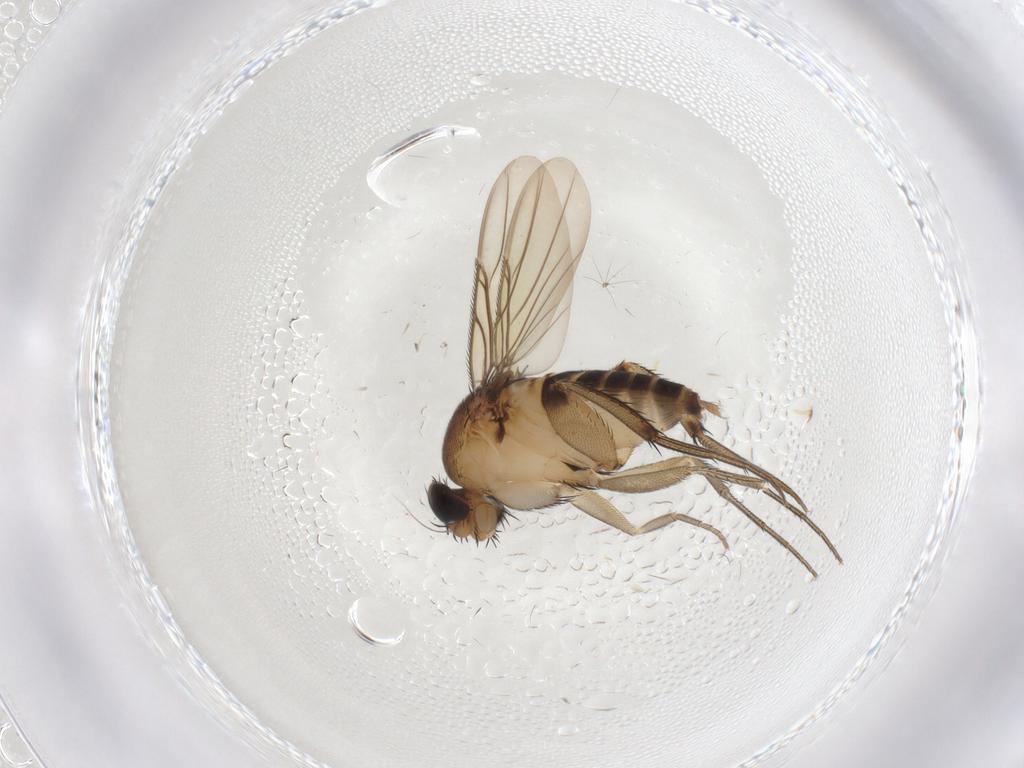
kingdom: Animalia
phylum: Arthropoda
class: Insecta
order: Diptera
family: Phoridae
